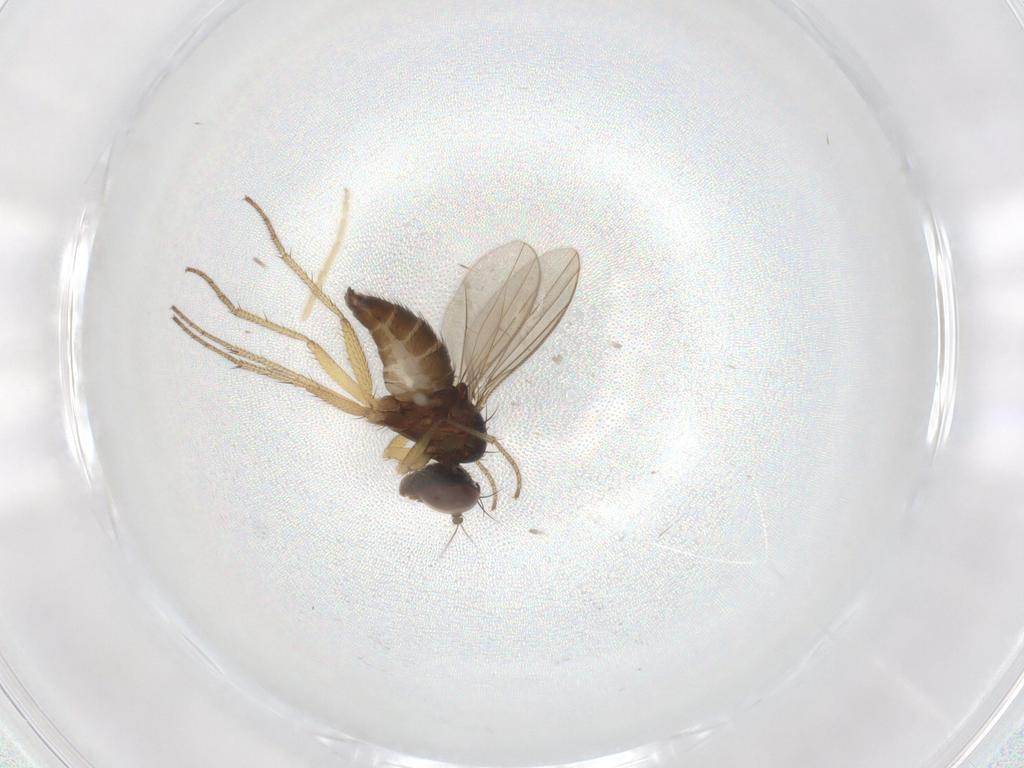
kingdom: Animalia
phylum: Arthropoda
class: Insecta
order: Diptera
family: Chironomidae
